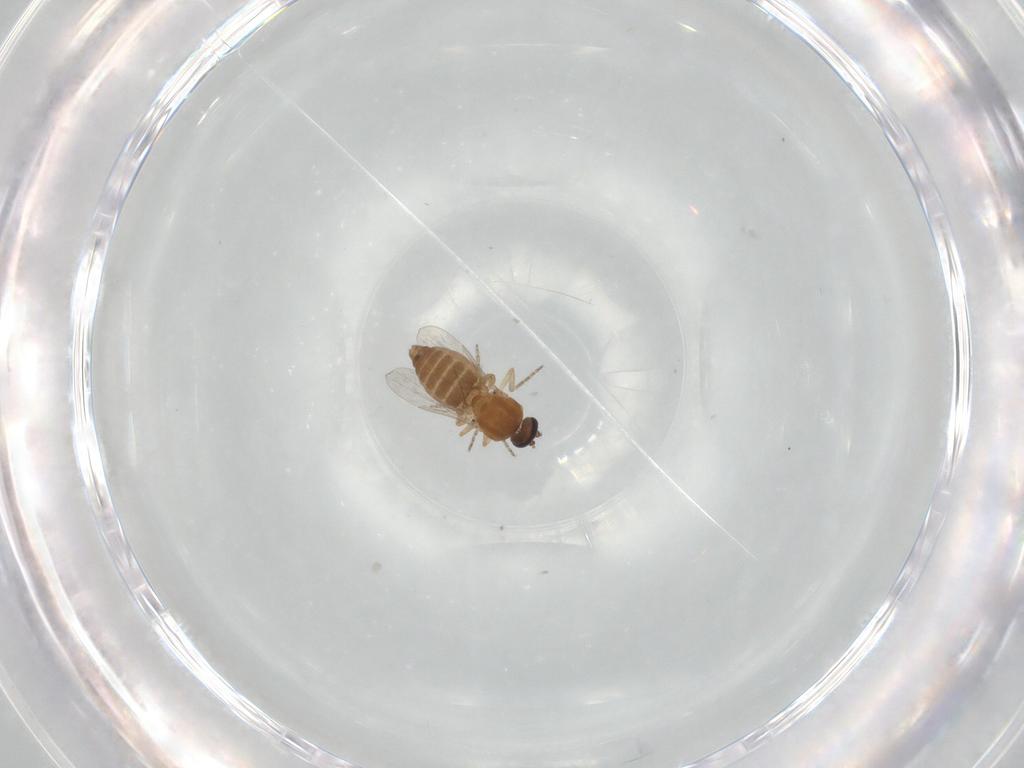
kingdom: Animalia
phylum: Arthropoda
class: Insecta
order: Diptera
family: Ceratopogonidae
